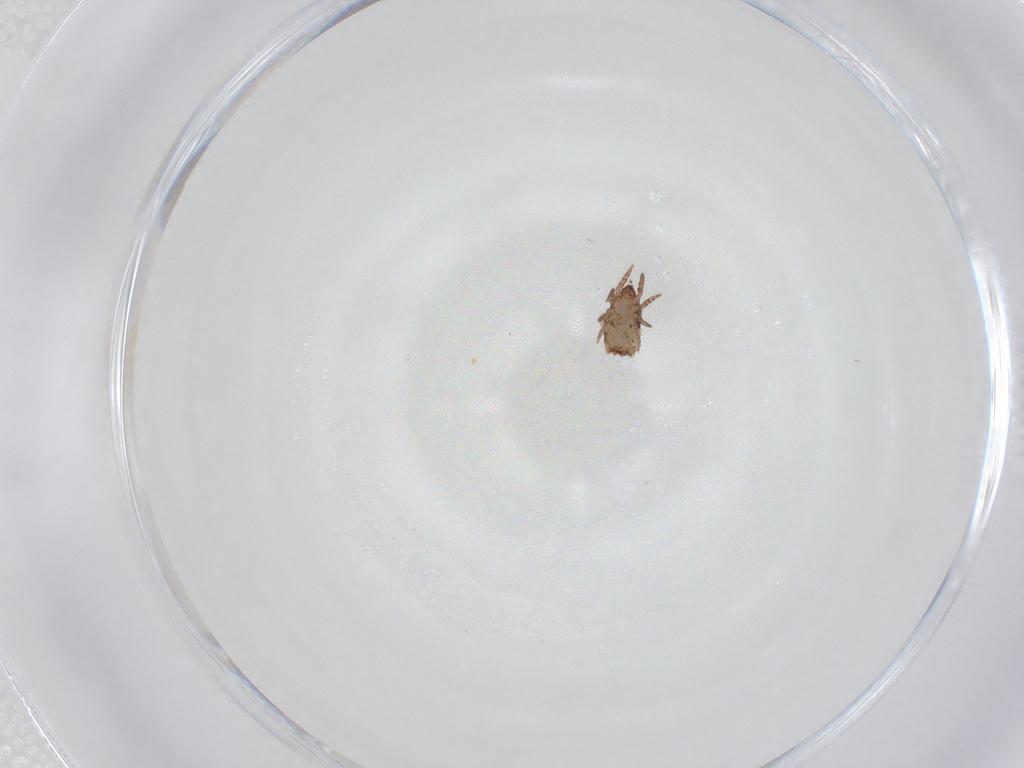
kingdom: Animalia
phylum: Arthropoda
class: Arachnida
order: Sarcoptiformes
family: Crotoniidae
